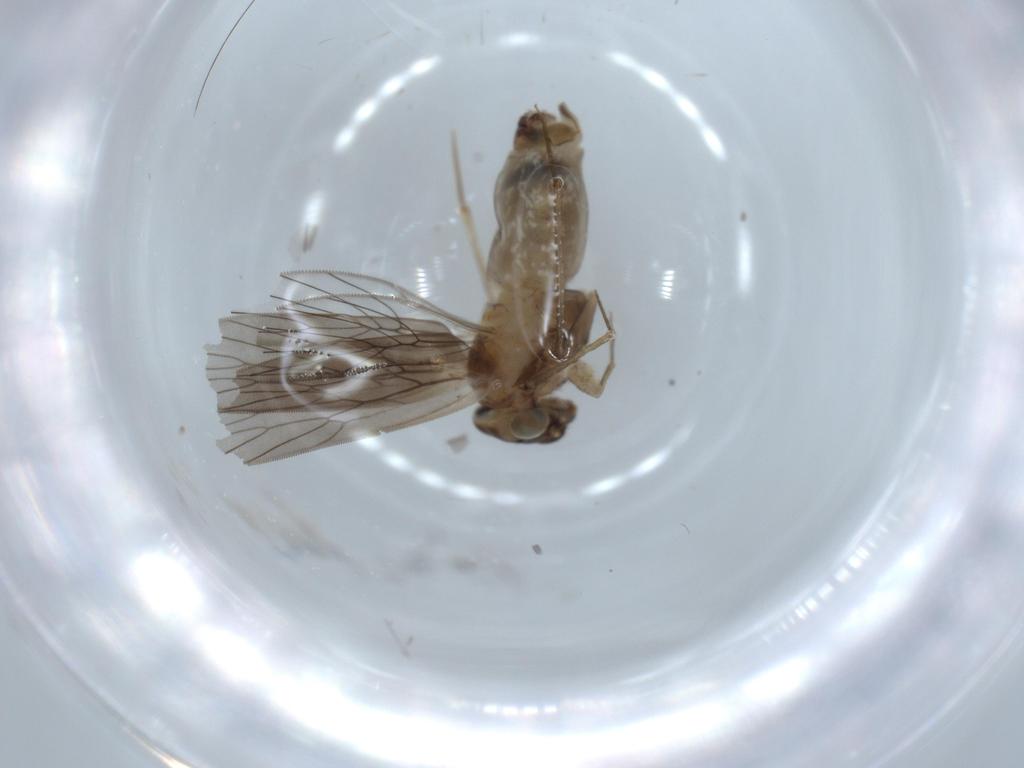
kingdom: Animalia
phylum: Arthropoda
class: Insecta
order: Psocodea
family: Lepidopsocidae
